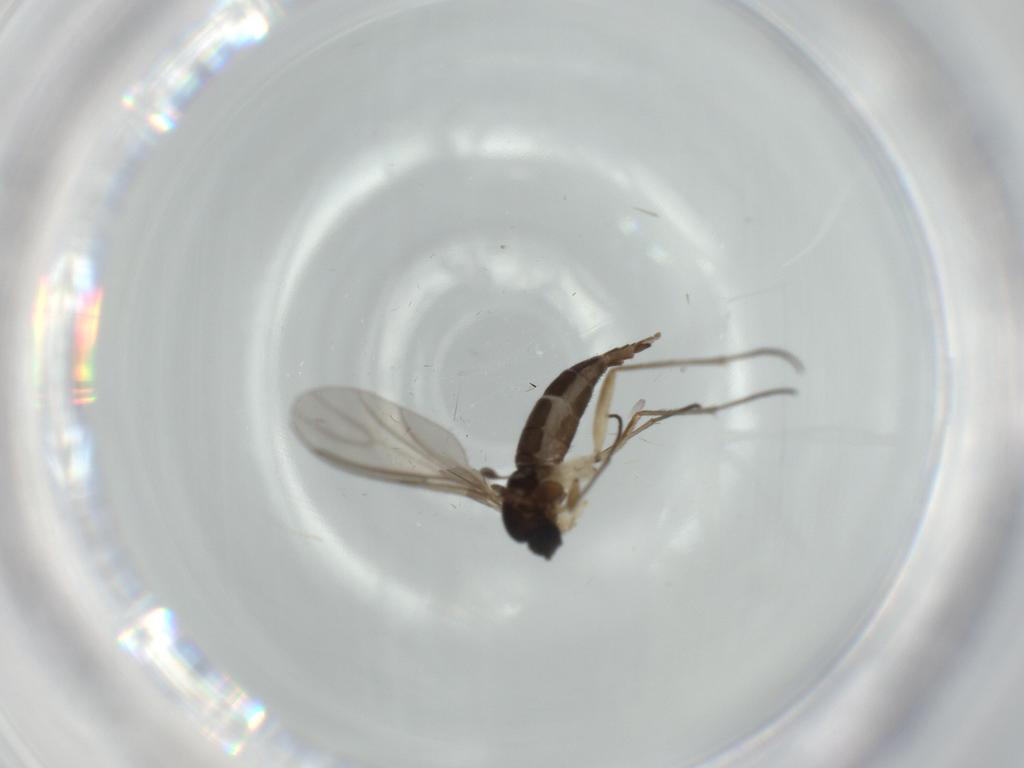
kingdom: Animalia
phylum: Arthropoda
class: Insecta
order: Diptera
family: Sciaridae
